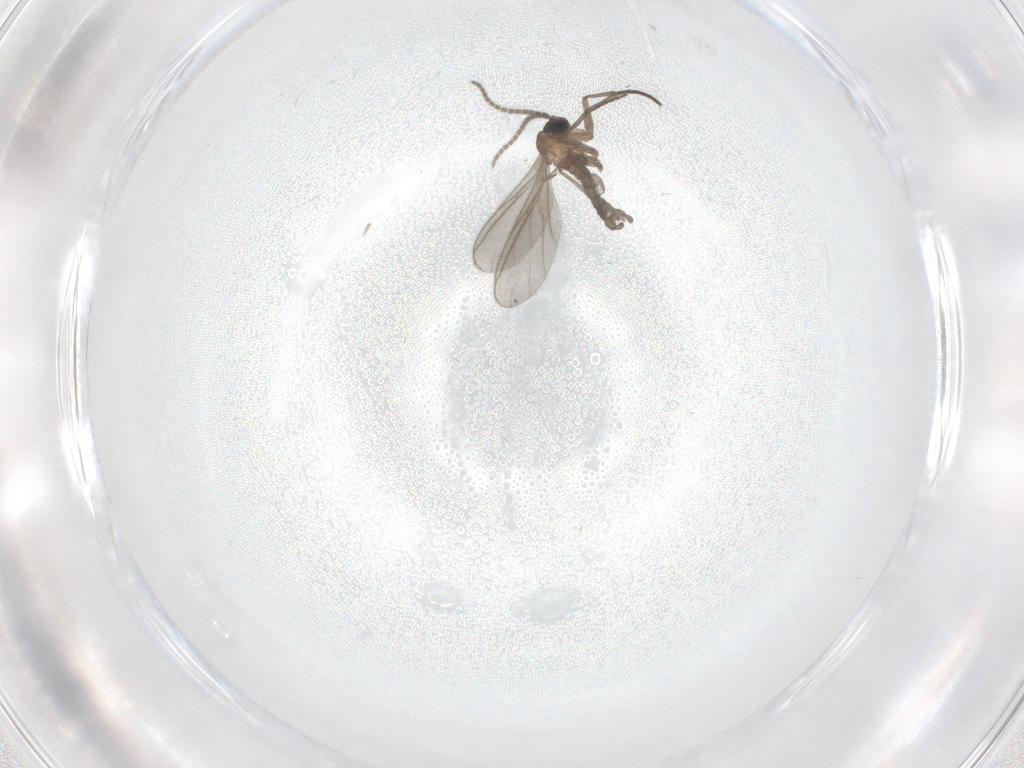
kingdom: Animalia
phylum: Arthropoda
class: Insecta
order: Diptera
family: Sciaridae
